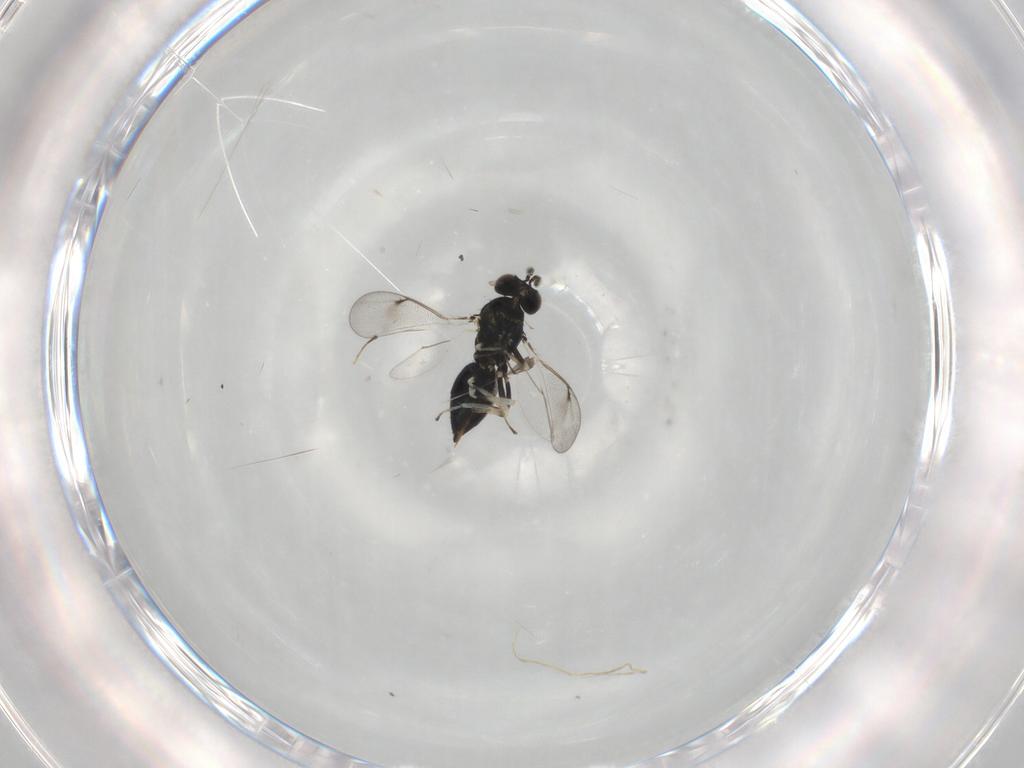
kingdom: Animalia
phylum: Arthropoda
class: Insecta
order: Hymenoptera
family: Scelionidae
